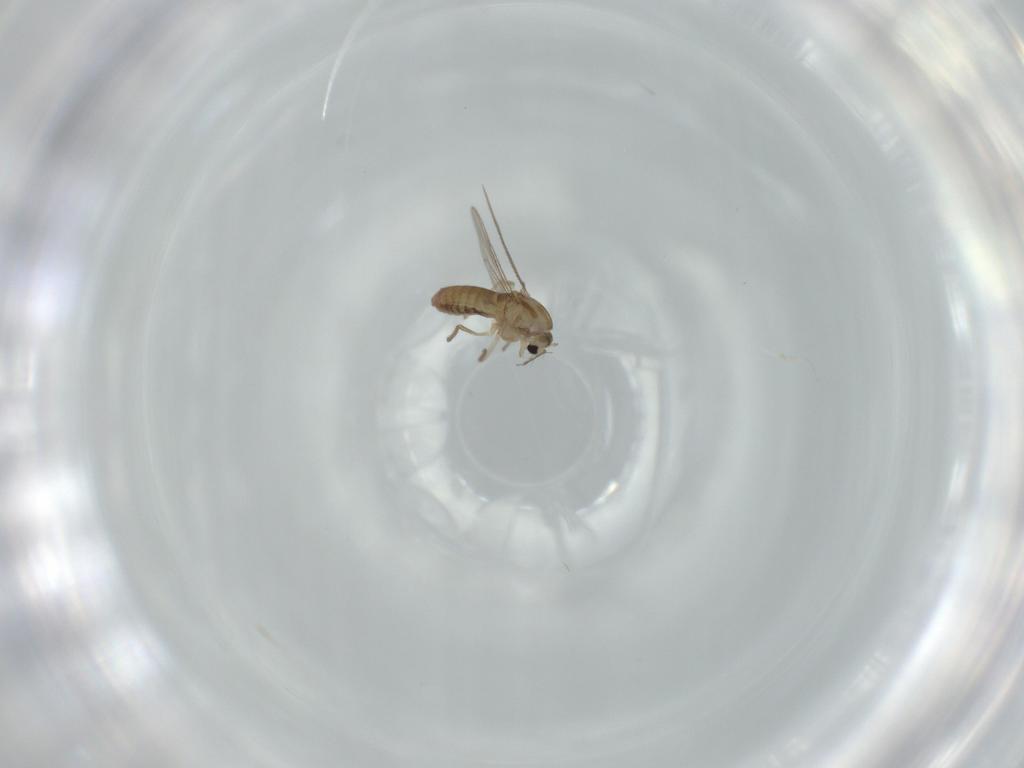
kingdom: Animalia
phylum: Arthropoda
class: Insecta
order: Diptera
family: Chironomidae
